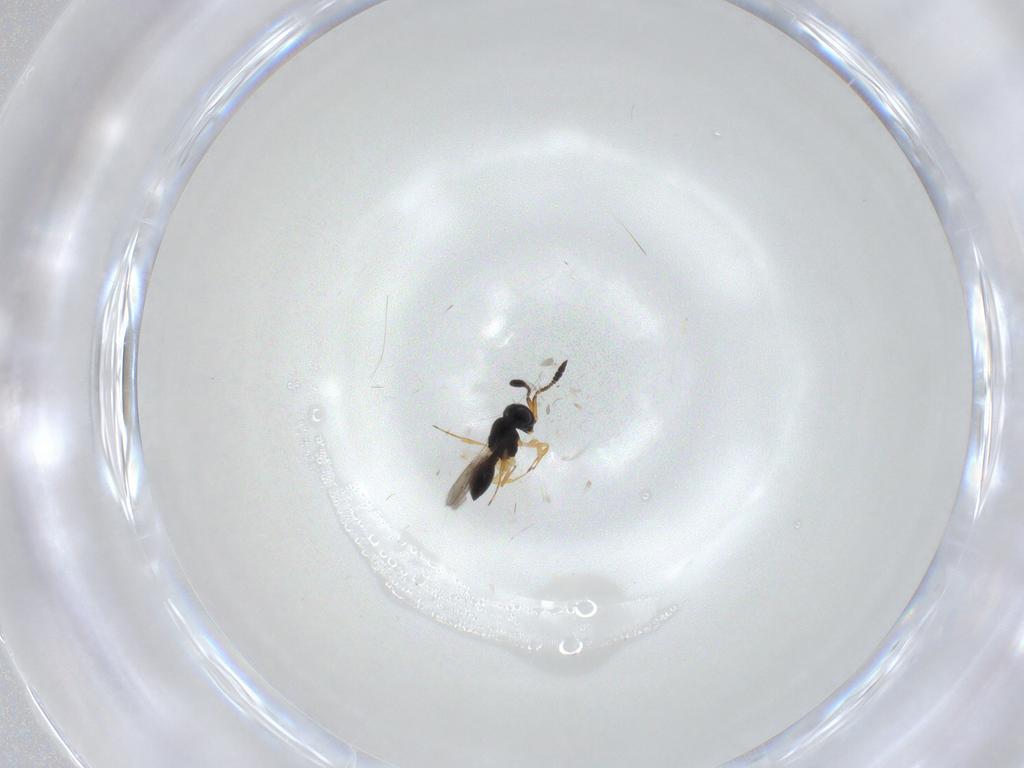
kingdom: Animalia
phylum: Arthropoda
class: Insecta
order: Hymenoptera
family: Scelionidae
